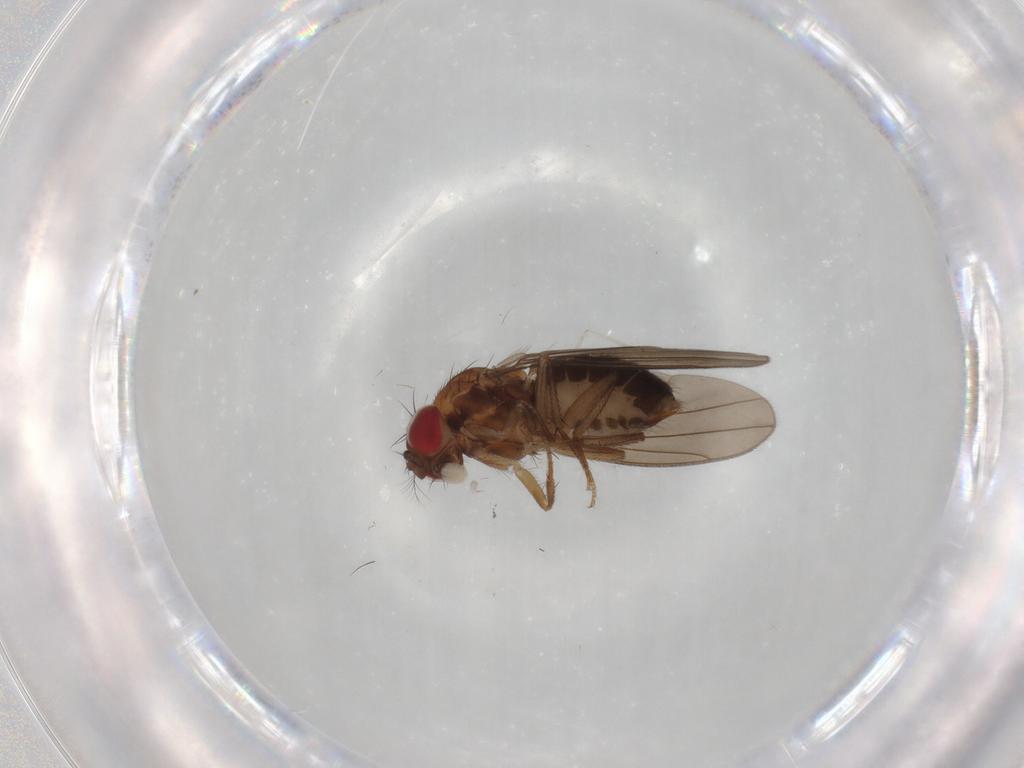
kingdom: Animalia
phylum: Arthropoda
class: Insecta
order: Diptera
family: Drosophilidae
